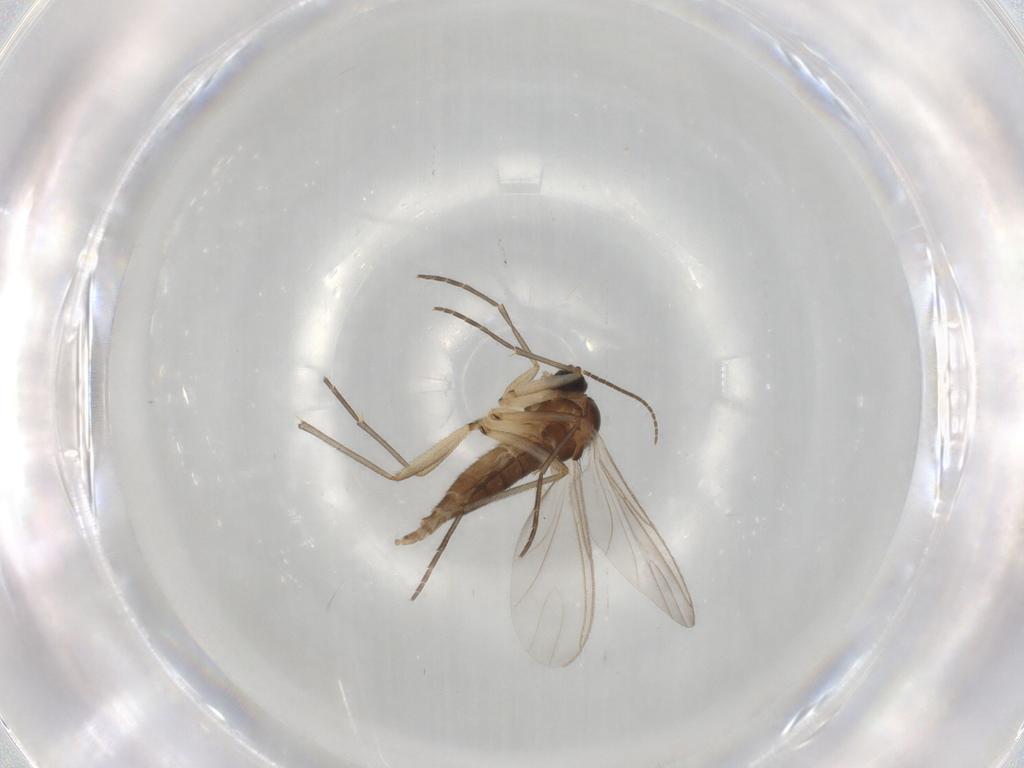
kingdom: Animalia
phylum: Arthropoda
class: Insecta
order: Diptera
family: Sciaridae
